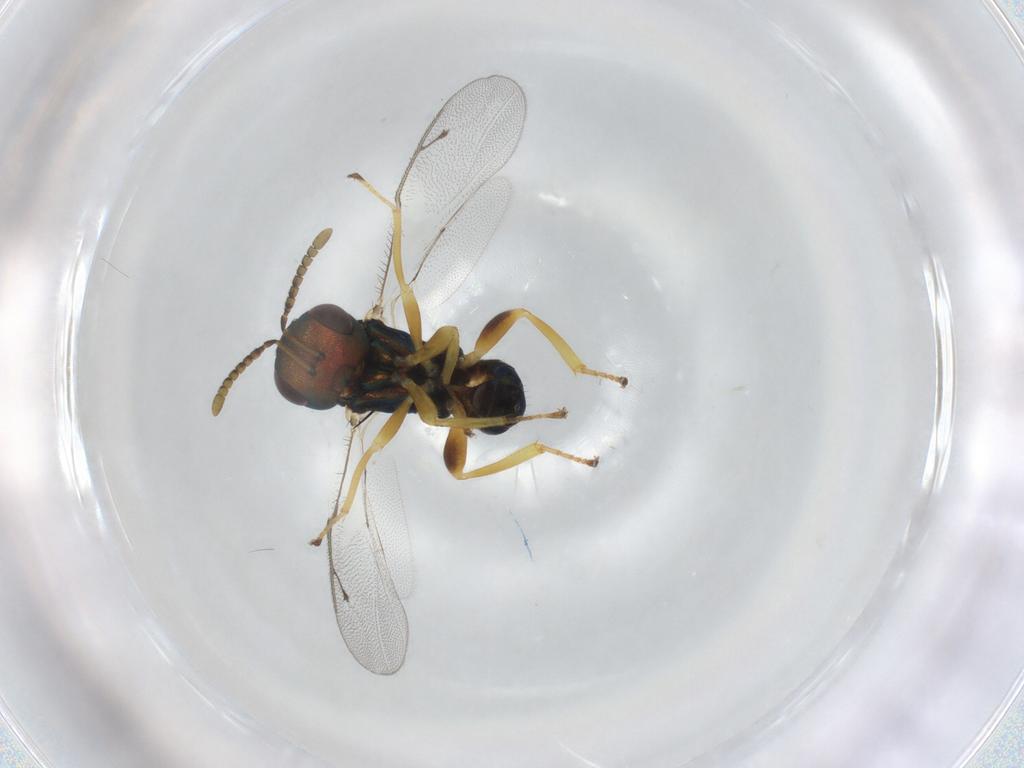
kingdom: Animalia
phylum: Arthropoda
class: Insecta
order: Hymenoptera
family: Pteromalidae
